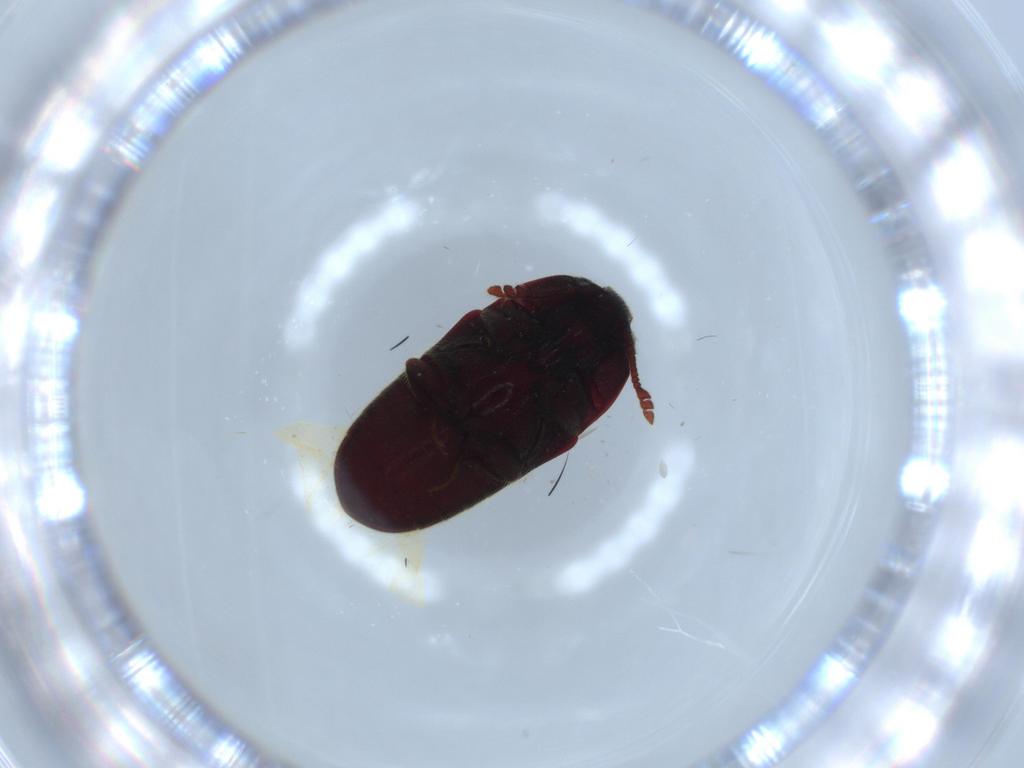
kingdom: Animalia
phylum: Arthropoda
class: Insecta
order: Coleoptera
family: Throscidae
